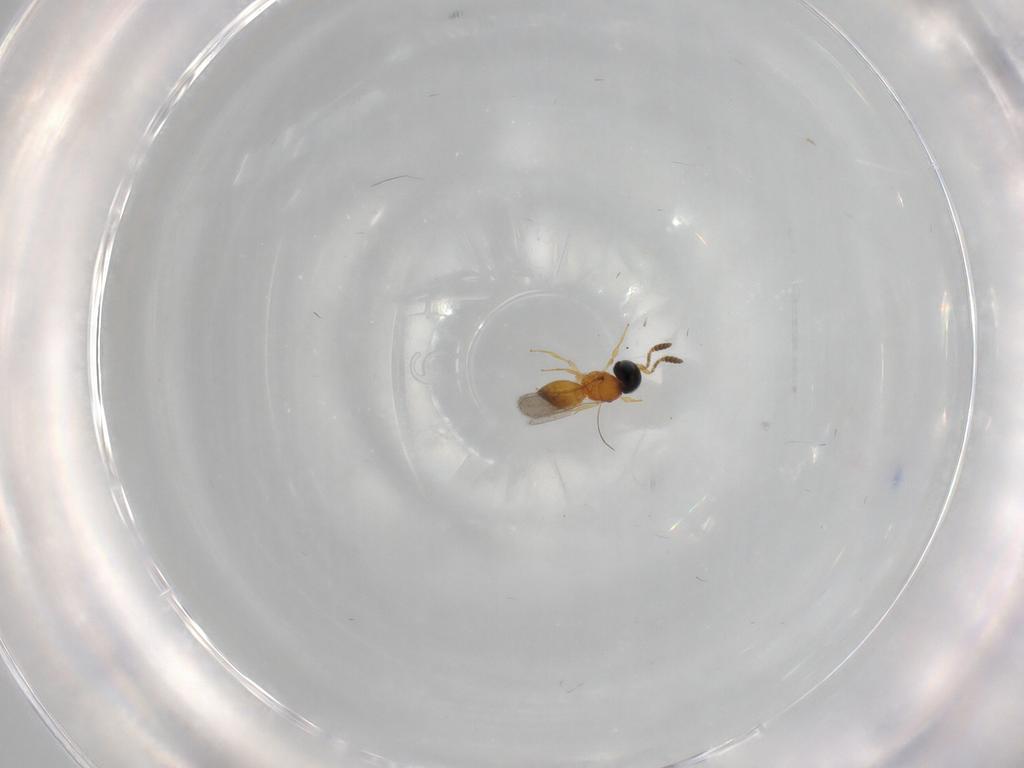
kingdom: Animalia
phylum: Arthropoda
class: Insecta
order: Hymenoptera
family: Scelionidae
